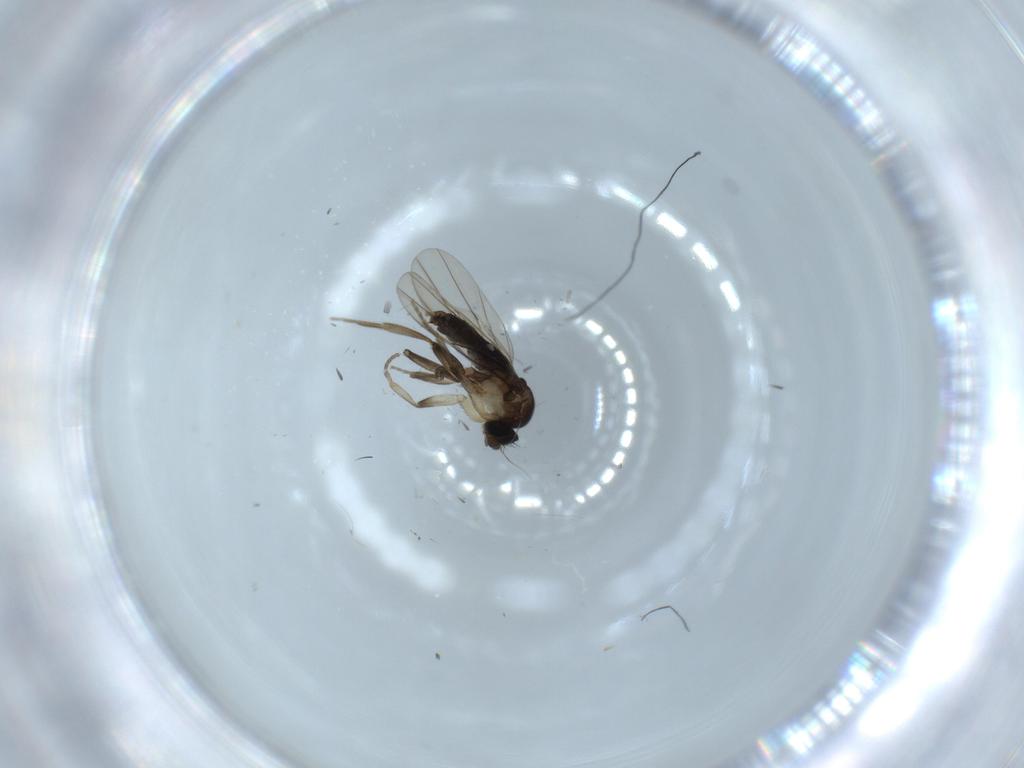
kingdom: Animalia
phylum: Arthropoda
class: Insecta
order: Diptera
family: Phoridae
